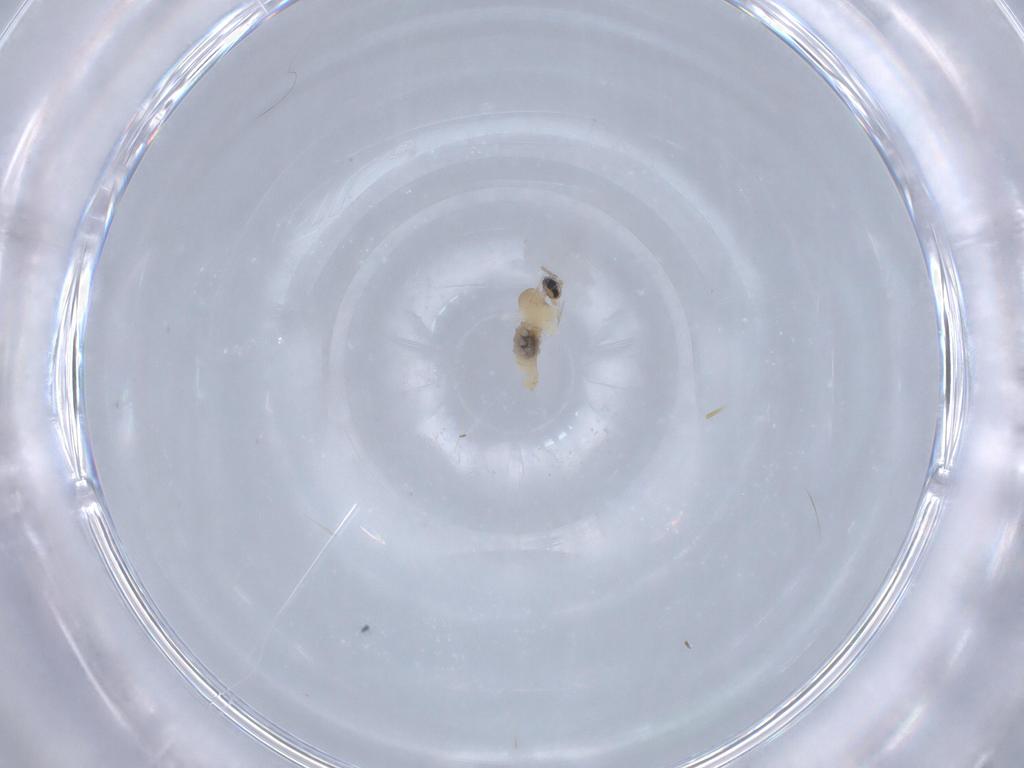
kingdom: Animalia
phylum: Arthropoda
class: Insecta
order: Diptera
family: Cecidomyiidae
